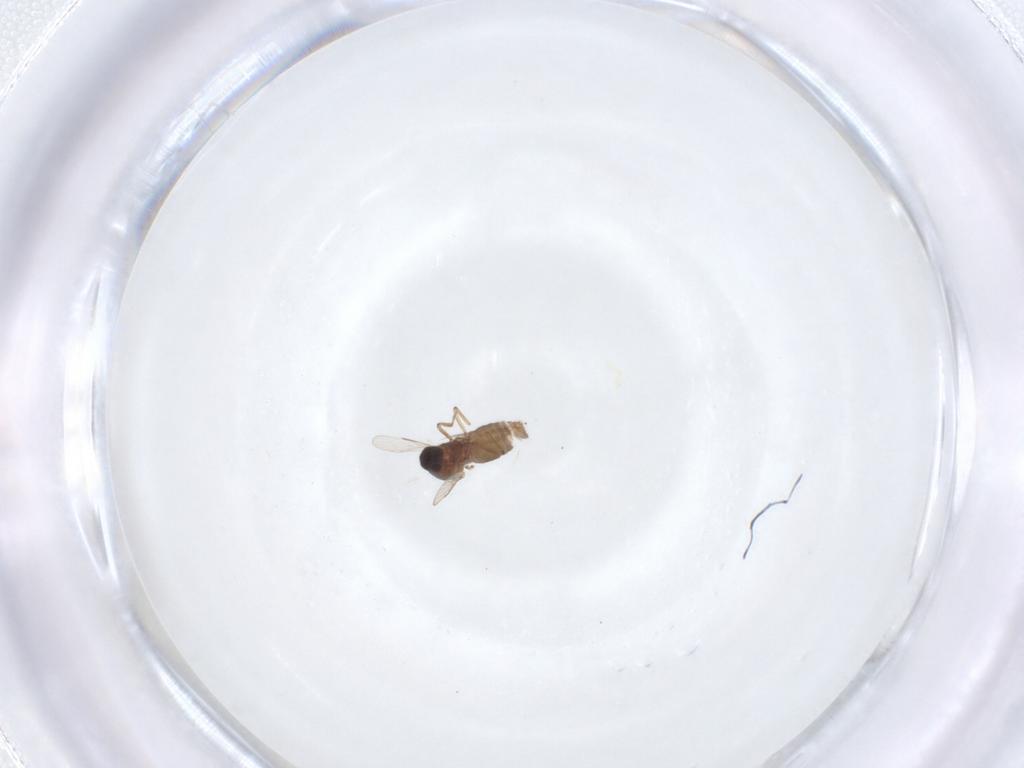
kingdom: Animalia
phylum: Arthropoda
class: Insecta
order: Diptera
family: Ceratopogonidae
